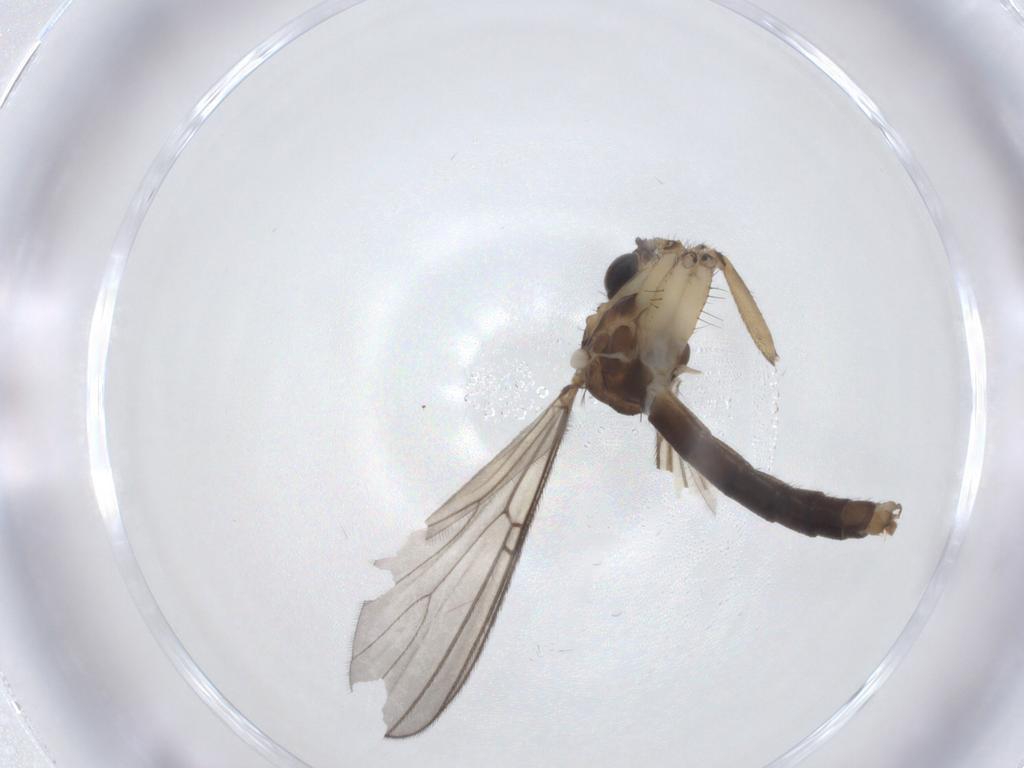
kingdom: Animalia
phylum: Arthropoda
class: Insecta
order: Diptera
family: Mycetophilidae
